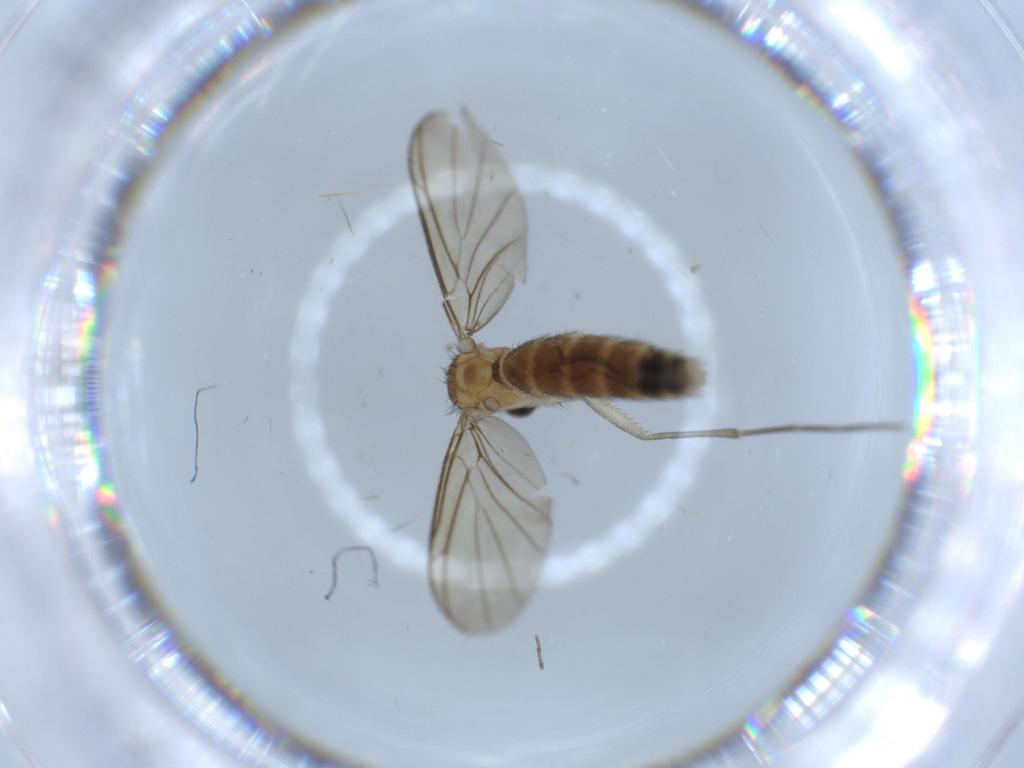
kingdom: Animalia
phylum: Arthropoda
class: Insecta
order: Diptera
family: Keroplatidae
